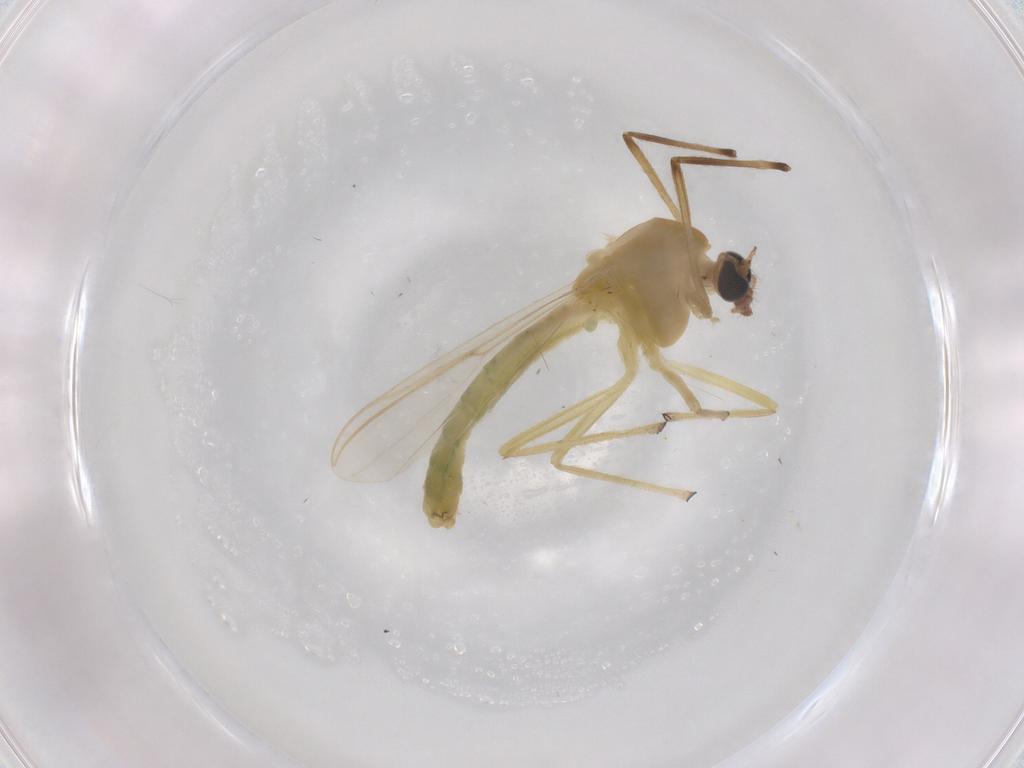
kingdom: Animalia
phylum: Arthropoda
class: Insecta
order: Diptera
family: Chironomidae
